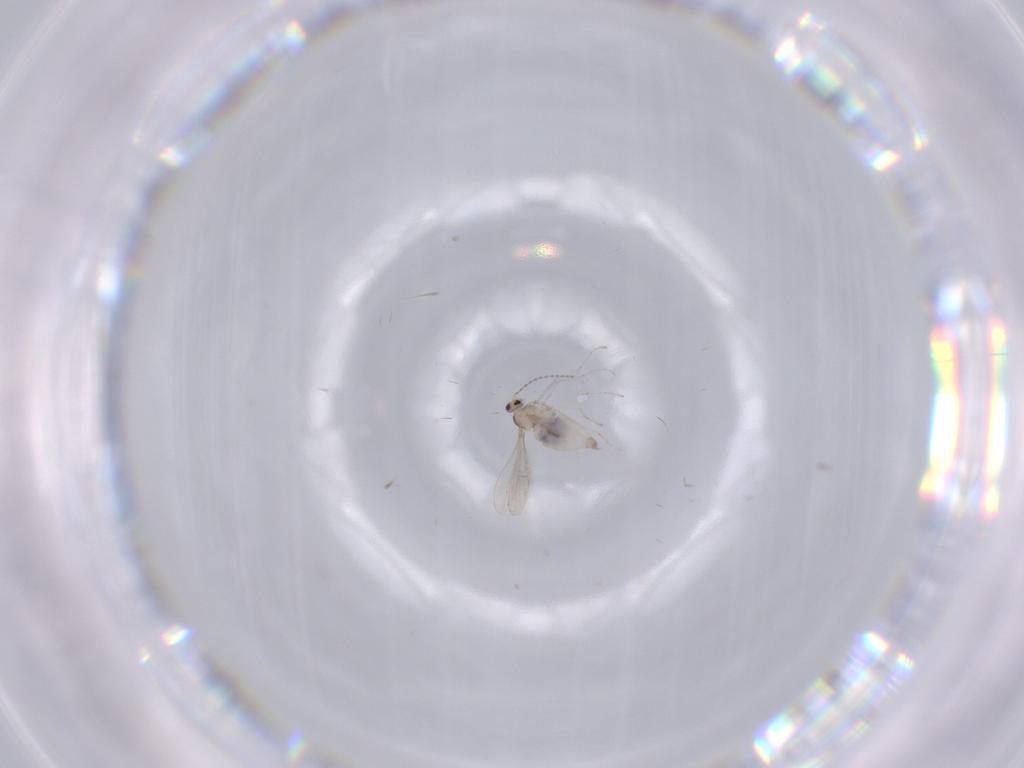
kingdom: Animalia
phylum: Arthropoda
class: Insecta
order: Diptera
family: Cecidomyiidae
